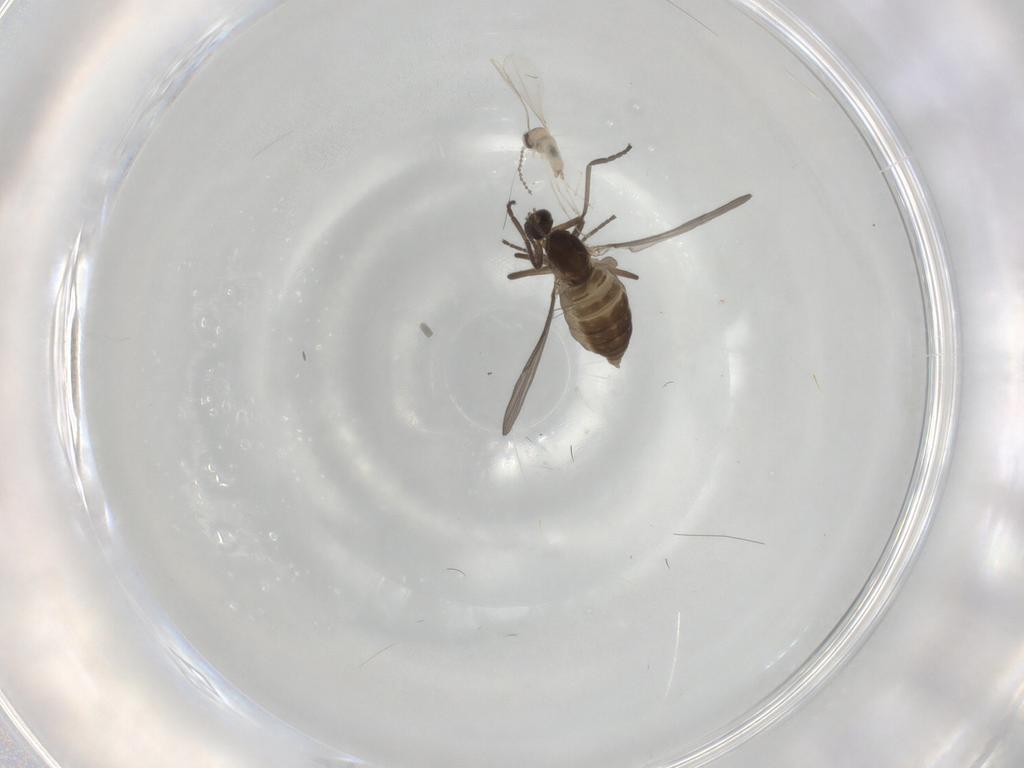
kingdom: Animalia
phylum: Arthropoda
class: Insecta
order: Diptera
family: Cecidomyiidae
